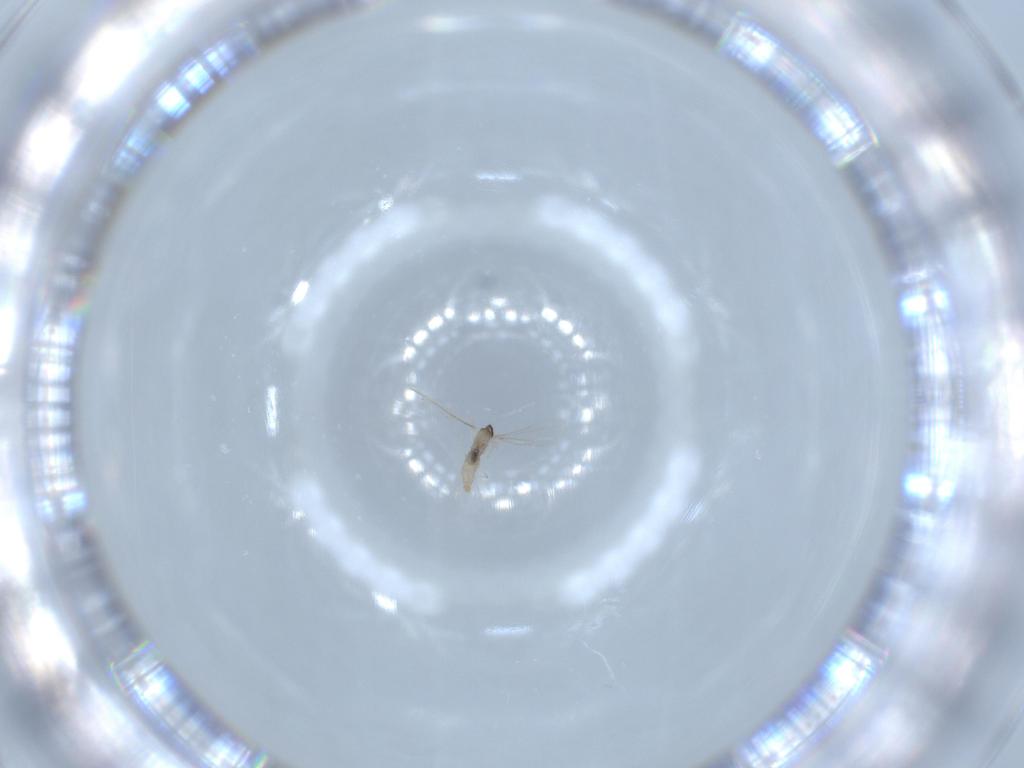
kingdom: Animalia
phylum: Arthropoda
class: Insecta
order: Diptera
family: Cecidomyiidae
